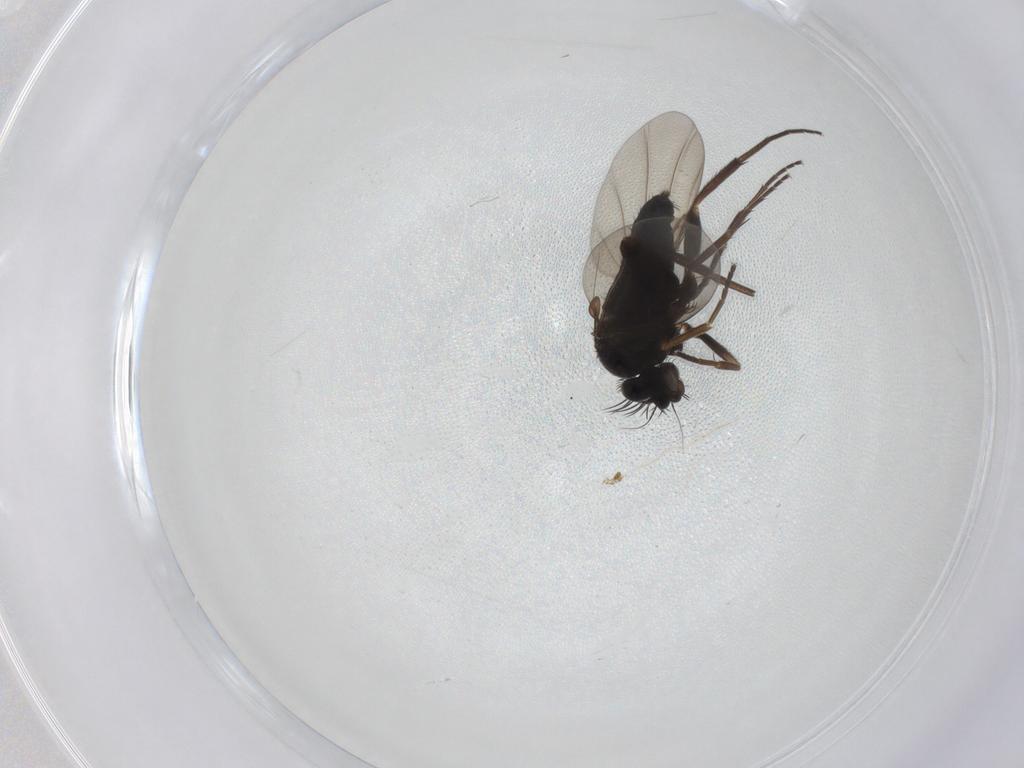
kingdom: Animalia
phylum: Arthropoda
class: Insecta
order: Diptera
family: Phoridae
